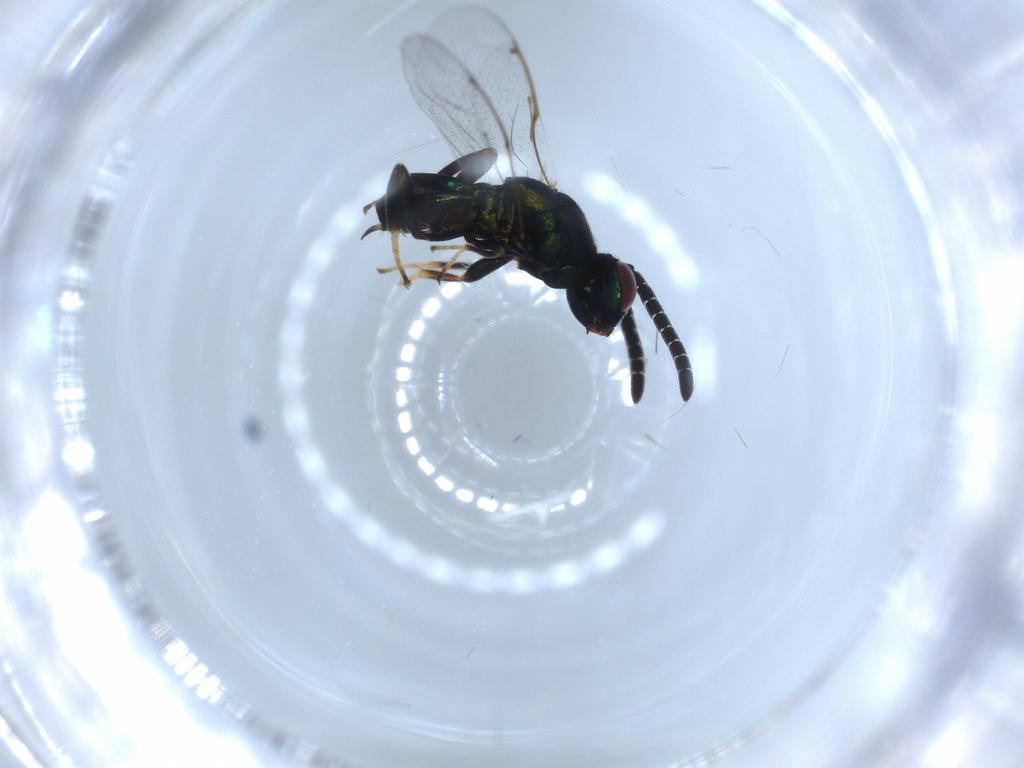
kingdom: Animalia
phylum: Arthropoda
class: Insecta
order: Hymenoptera
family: Torymidae
